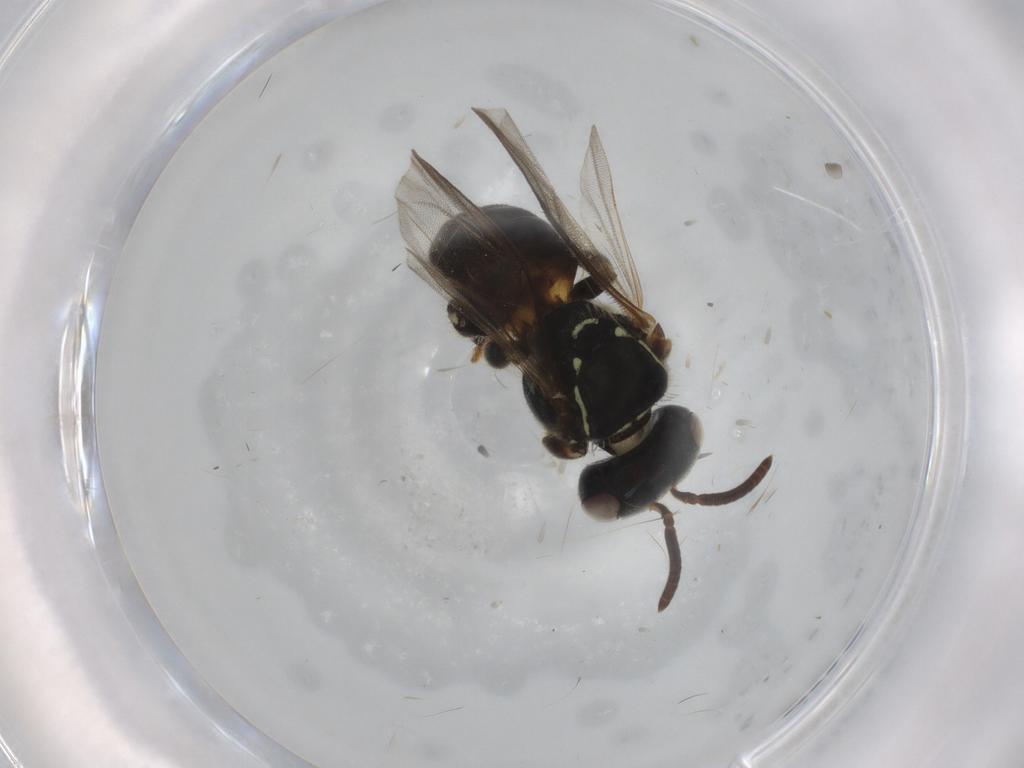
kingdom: Animalia
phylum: Arthropoda
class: Insecta
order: Hymenoptera
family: Apidae
